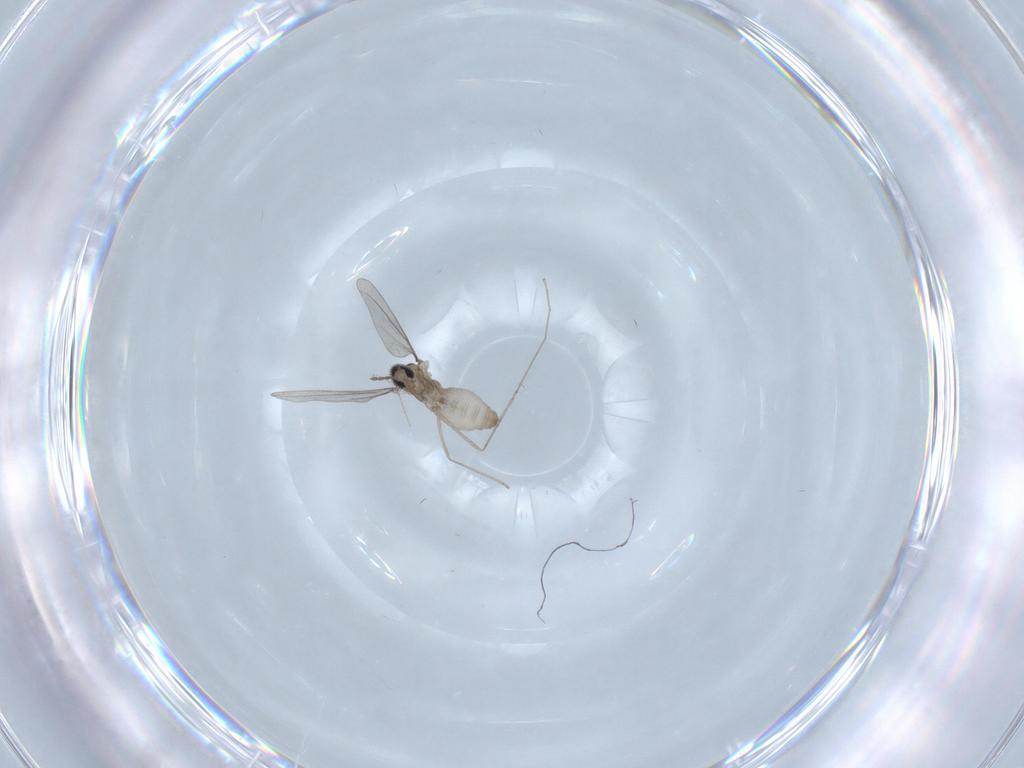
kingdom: Animalia
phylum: Arthropoda
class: Insecta
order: Diptera
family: Cecidomyiidae
